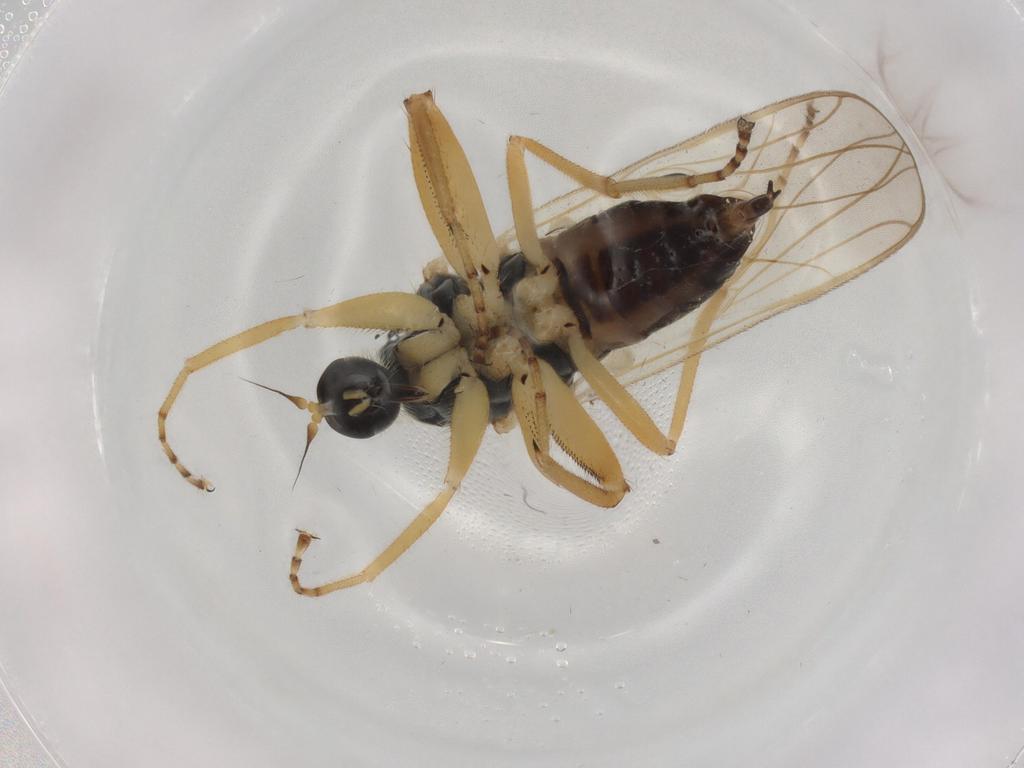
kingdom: Animalia
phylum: Arthropoda
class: Insecta
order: Diptera
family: Hybotidae
